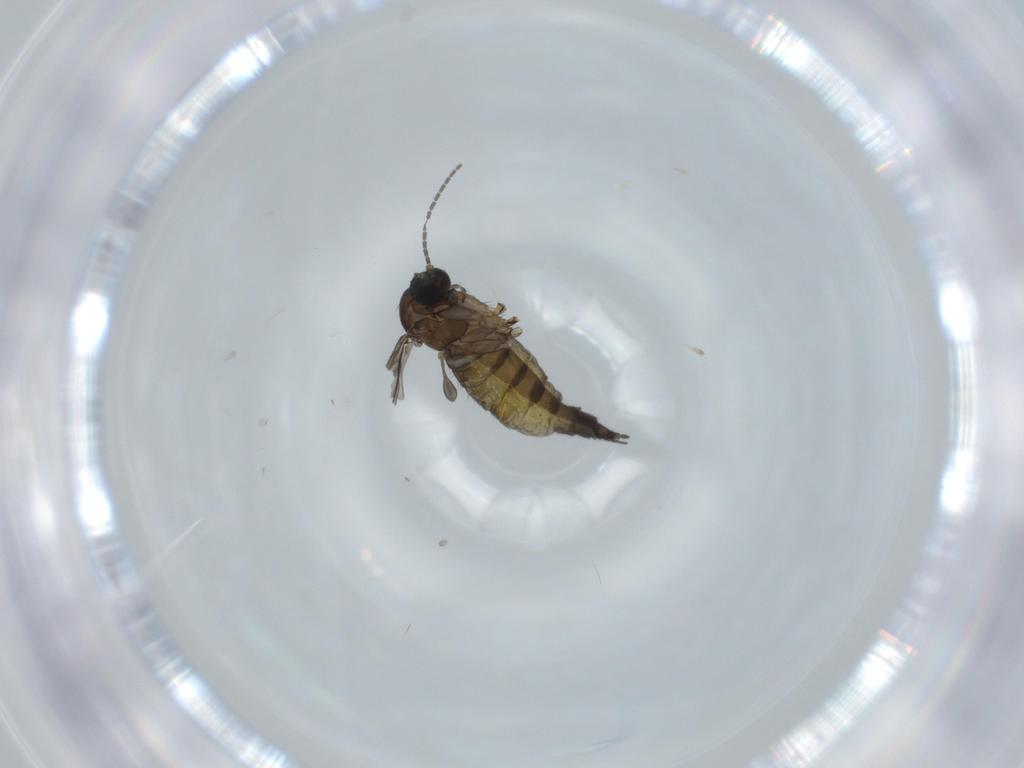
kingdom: Animalia
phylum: Arthropoda
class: Insecta
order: Diptera
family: Sciaridae
